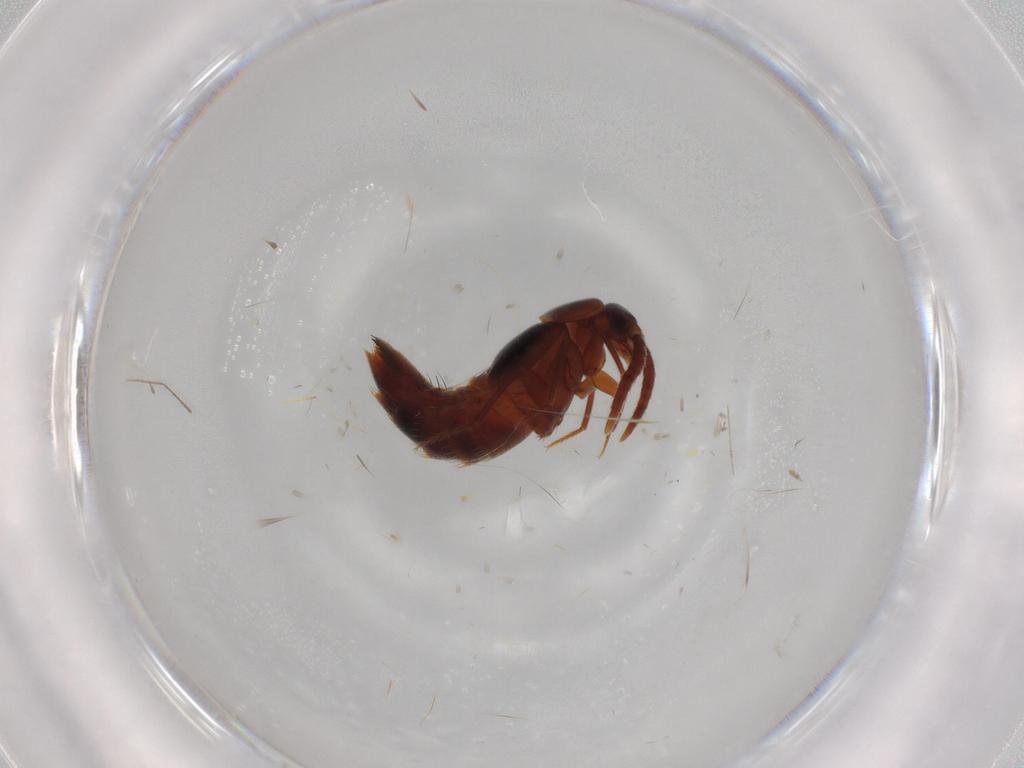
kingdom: Animalia
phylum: Arthropoda
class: Insecta
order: Coleoptera
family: Staphylinidae
